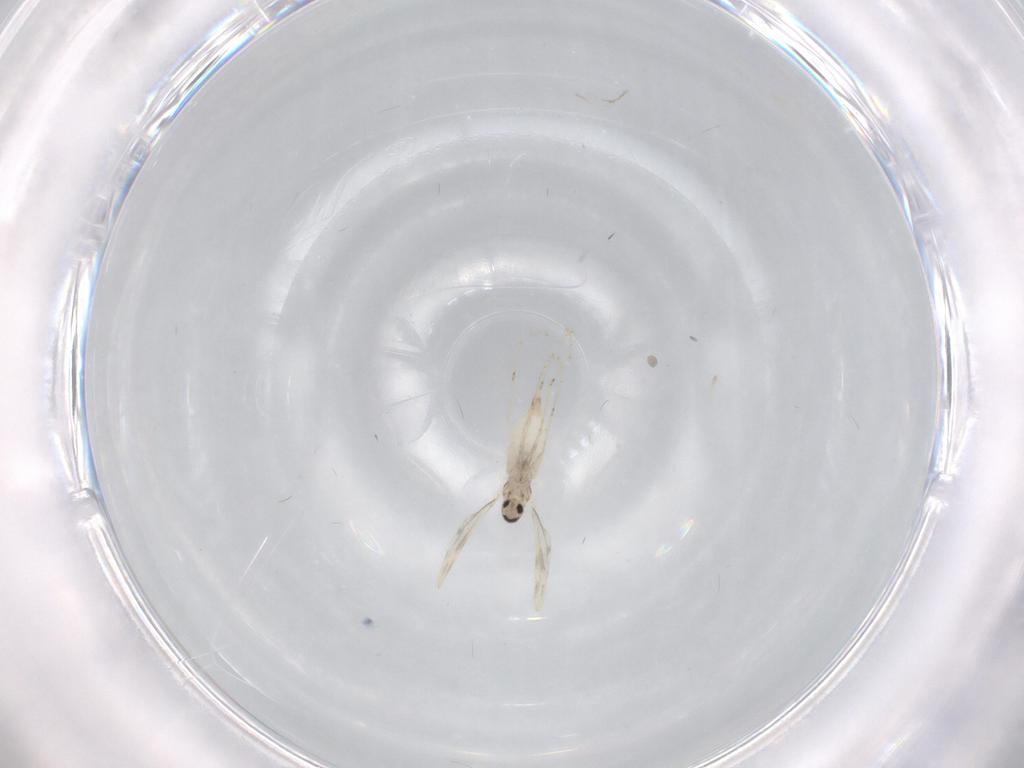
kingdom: Animalia
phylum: Arthropoda
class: Insecta
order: Diptera
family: Cecidomyiidae
